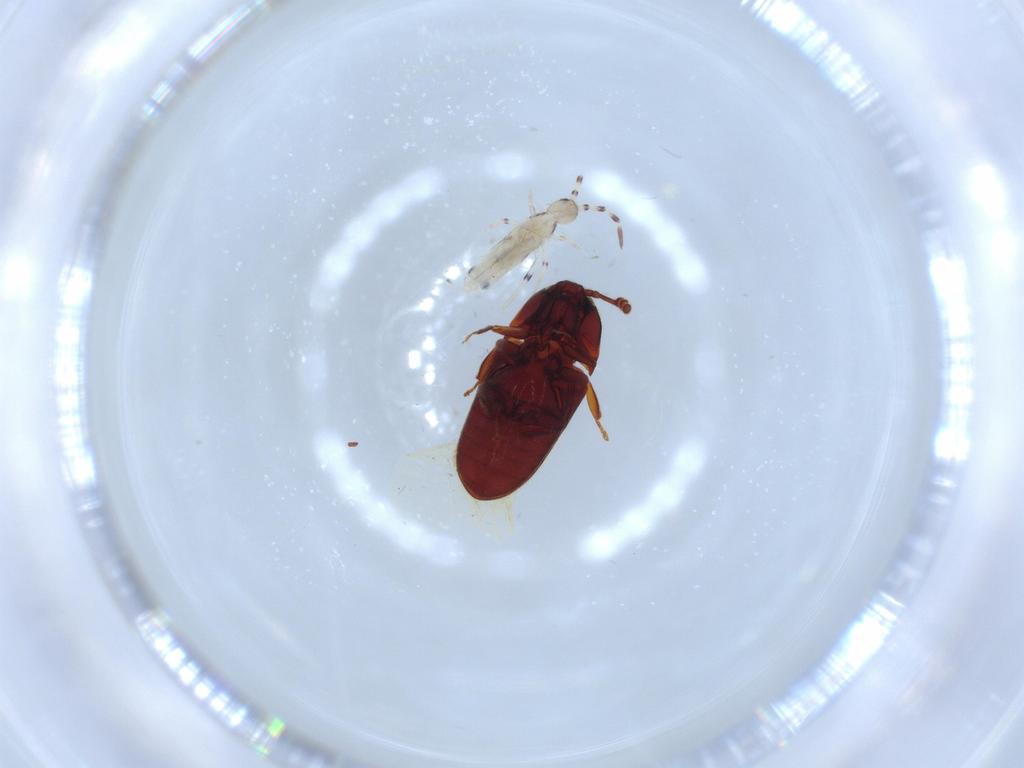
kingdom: Animalia
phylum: Arthropoda
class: Collembola
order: Entomobryomorpha
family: Entomobryidae
